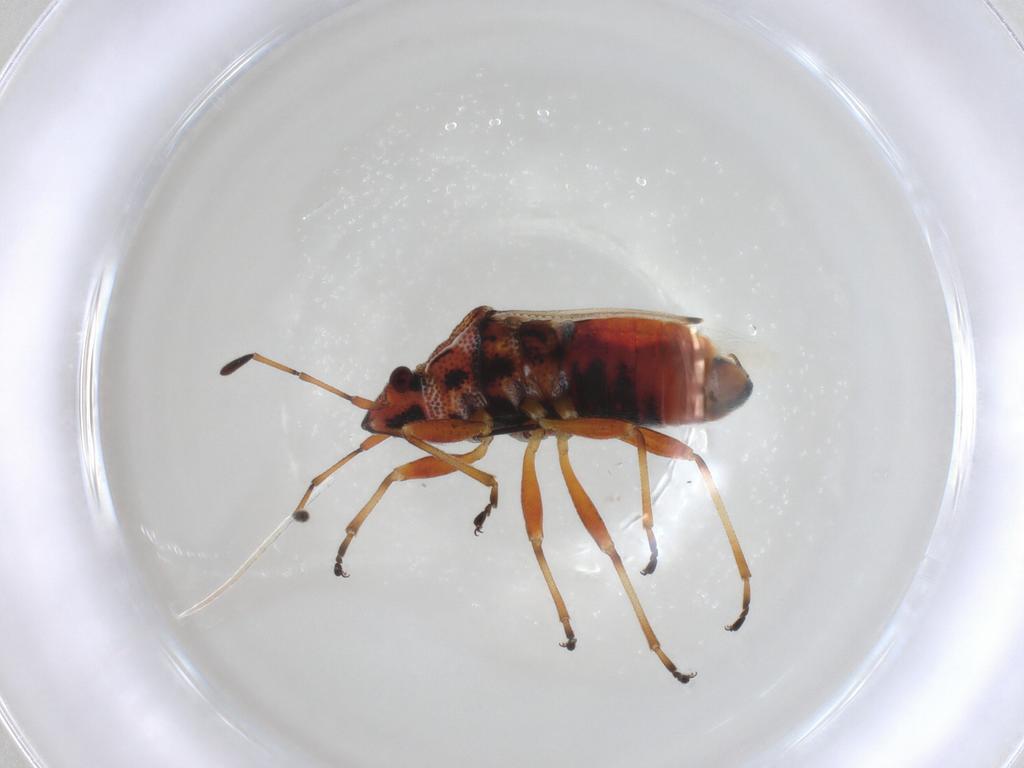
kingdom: Animalia
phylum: Arthropoda
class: Insecta
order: Hemiptera
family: Lygaeidae
